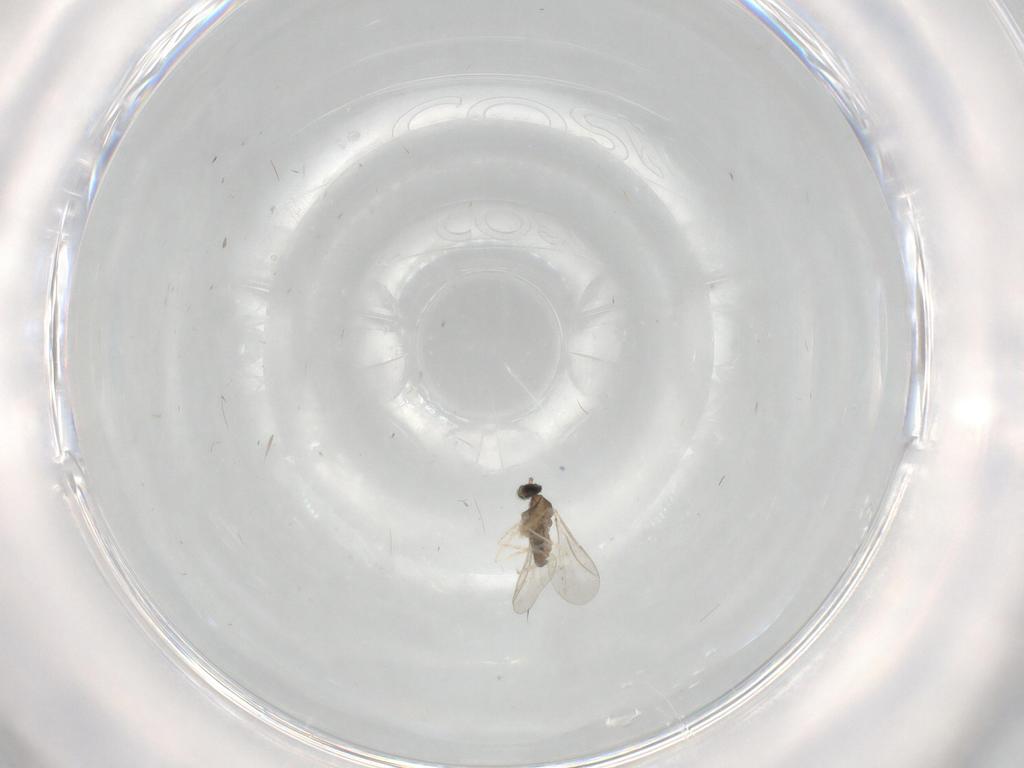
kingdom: Animalia
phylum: Arthropoda
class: Insecta
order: Diptera
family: Cecidomyiidae
